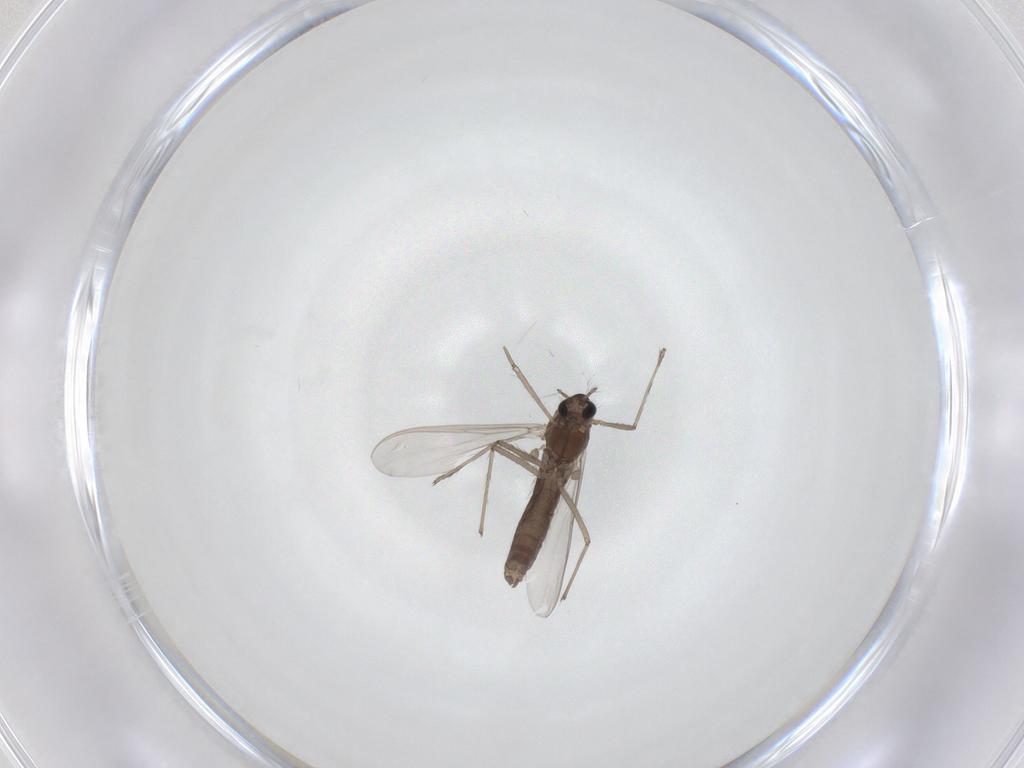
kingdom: Animalia
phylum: Arthropoda
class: Insecta
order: Diptera
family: Chironomidae
